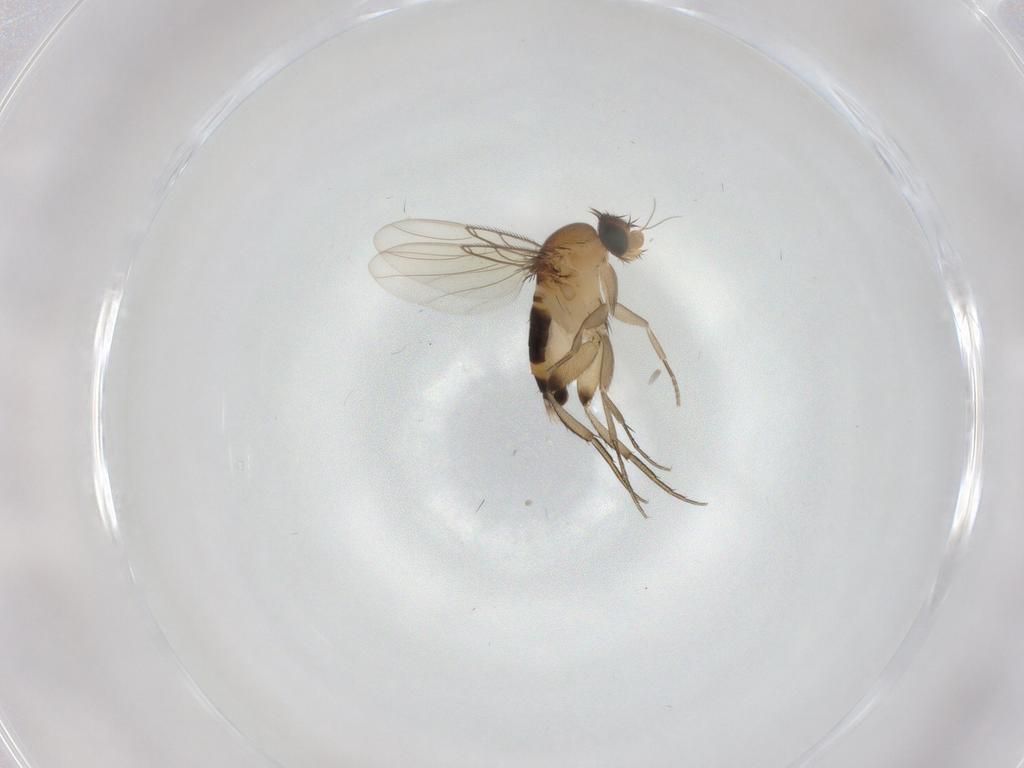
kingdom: Animalia
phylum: Arthropoda
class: Insecta
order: Diptera
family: Phoridae
